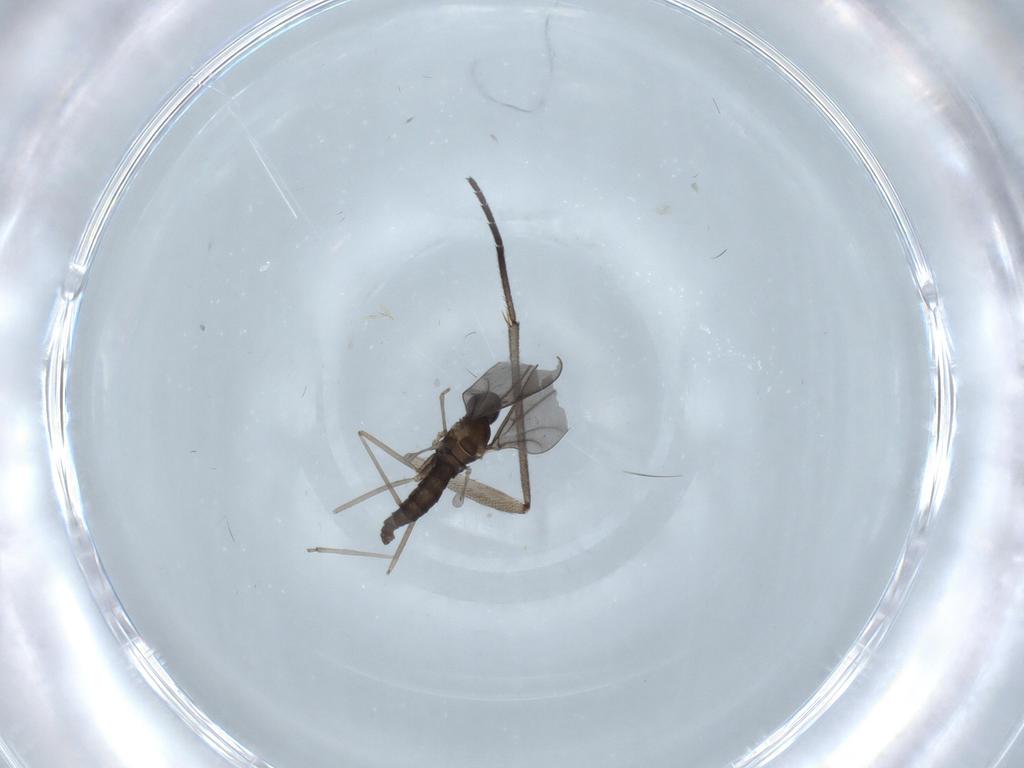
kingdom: Animalia
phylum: Arthropoda
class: Insecta
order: Diptera
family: Cecidomyiidae
